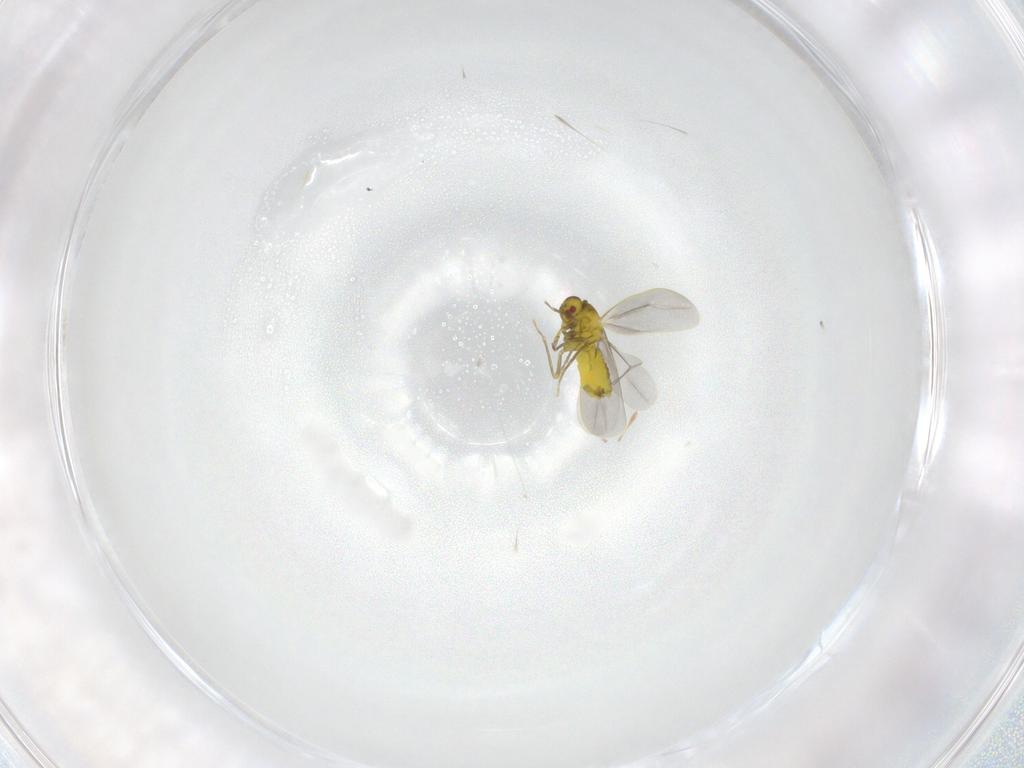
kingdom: Animalia
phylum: Arthropoda
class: Insecta
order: Hemiptera
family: Aleyrodidae
